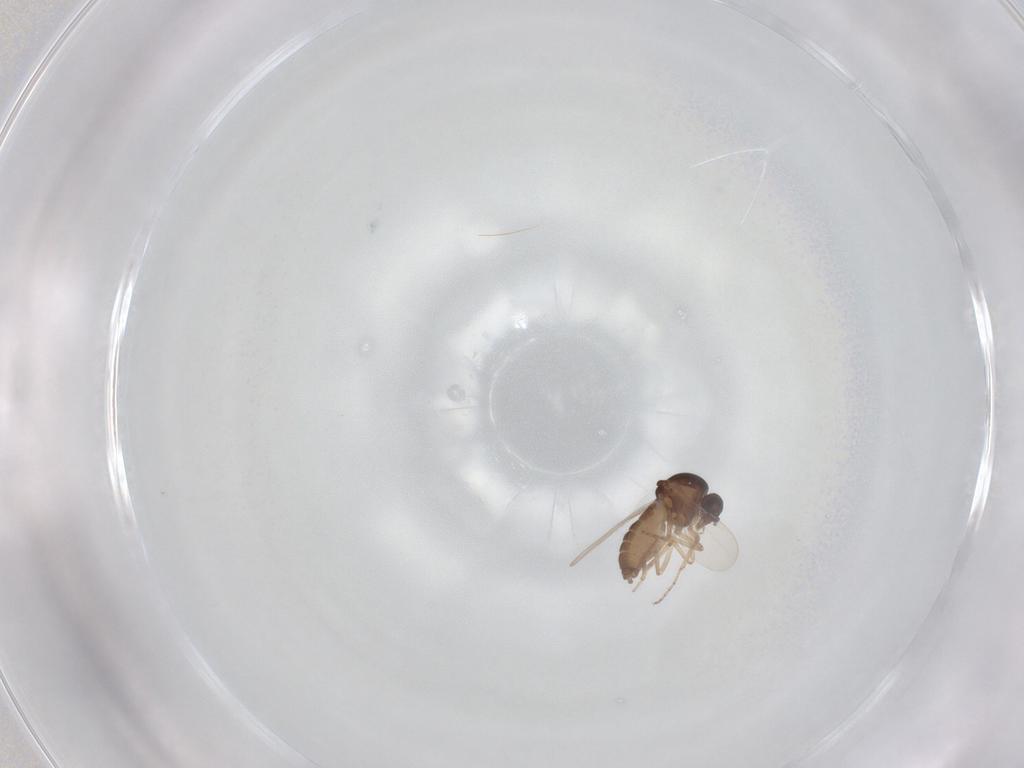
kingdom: Animalia
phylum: Arthropoda
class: Insecta
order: Diptera
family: Ceratopogonidae
